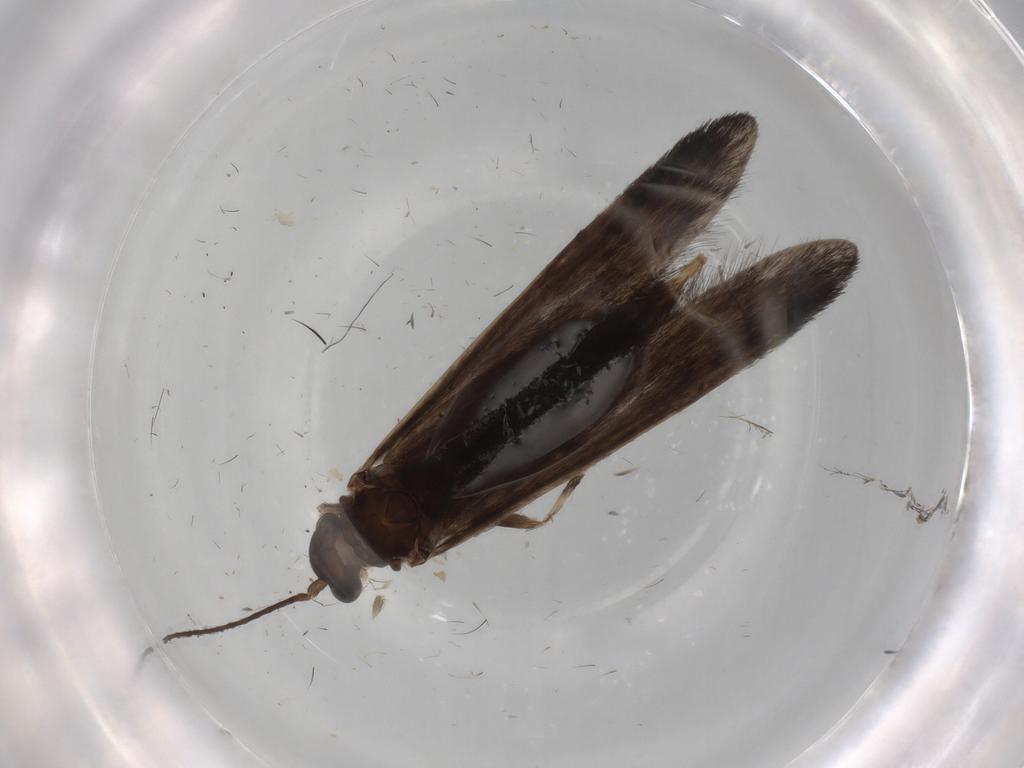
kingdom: Animalia
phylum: Arthropoda
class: Insecta
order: Trichoptera
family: Xiphocentronidae
